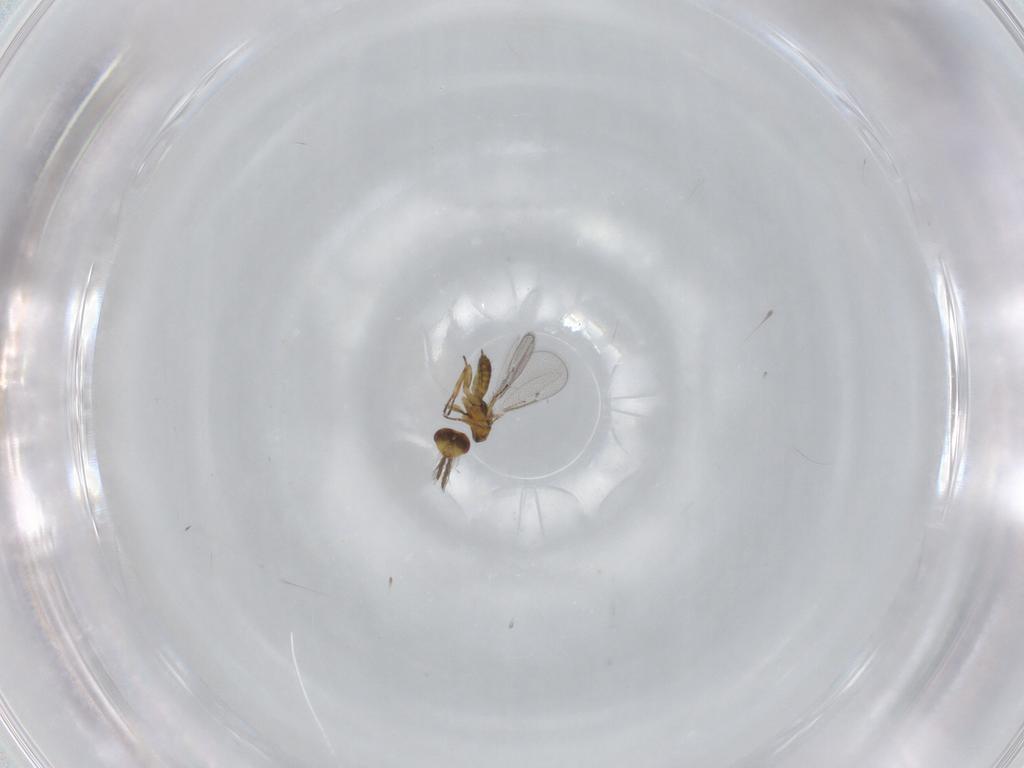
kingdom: Animalia
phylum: Arthropoda
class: Insecta
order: Hymenoptera
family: Eulophidae
